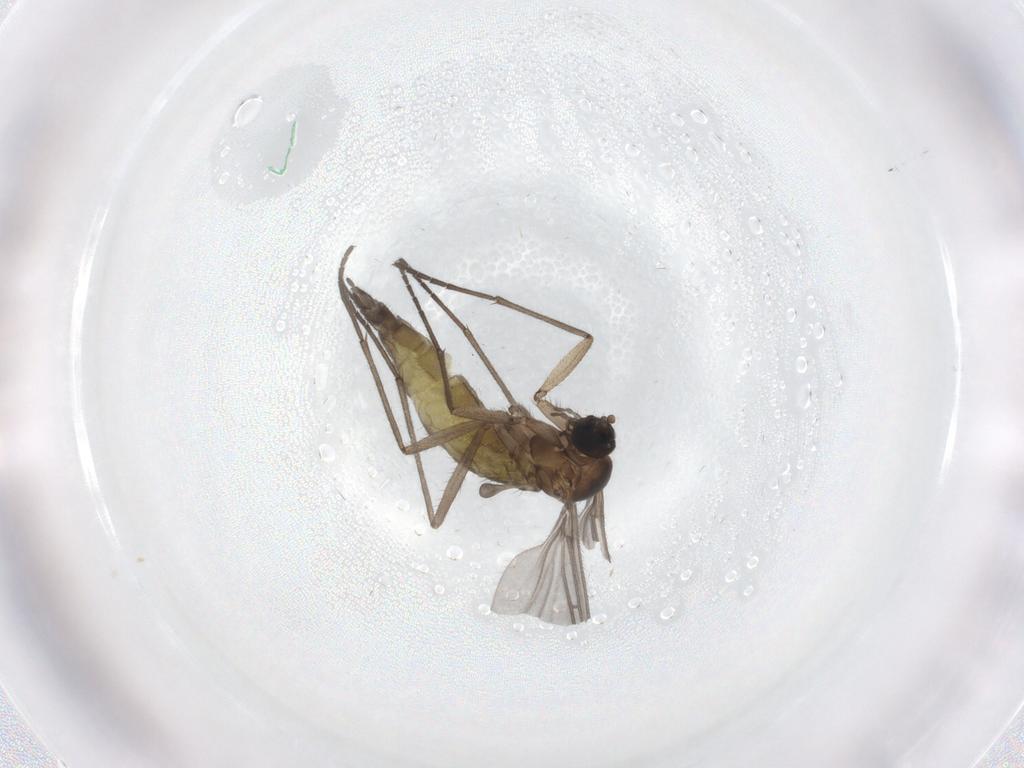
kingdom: Animalia
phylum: Arthropoda
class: Insecta
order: Diptera
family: Sciaridae
